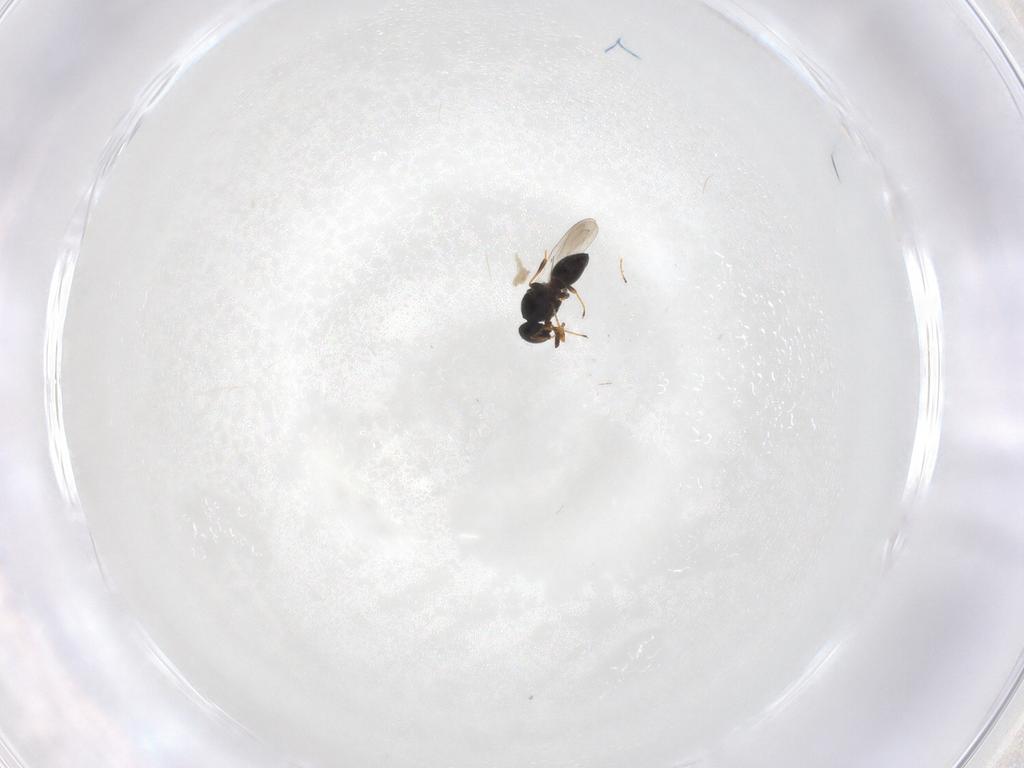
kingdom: Animalia
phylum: Arthropoda
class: Insecta
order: Hymenoptera
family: Platygastridae
